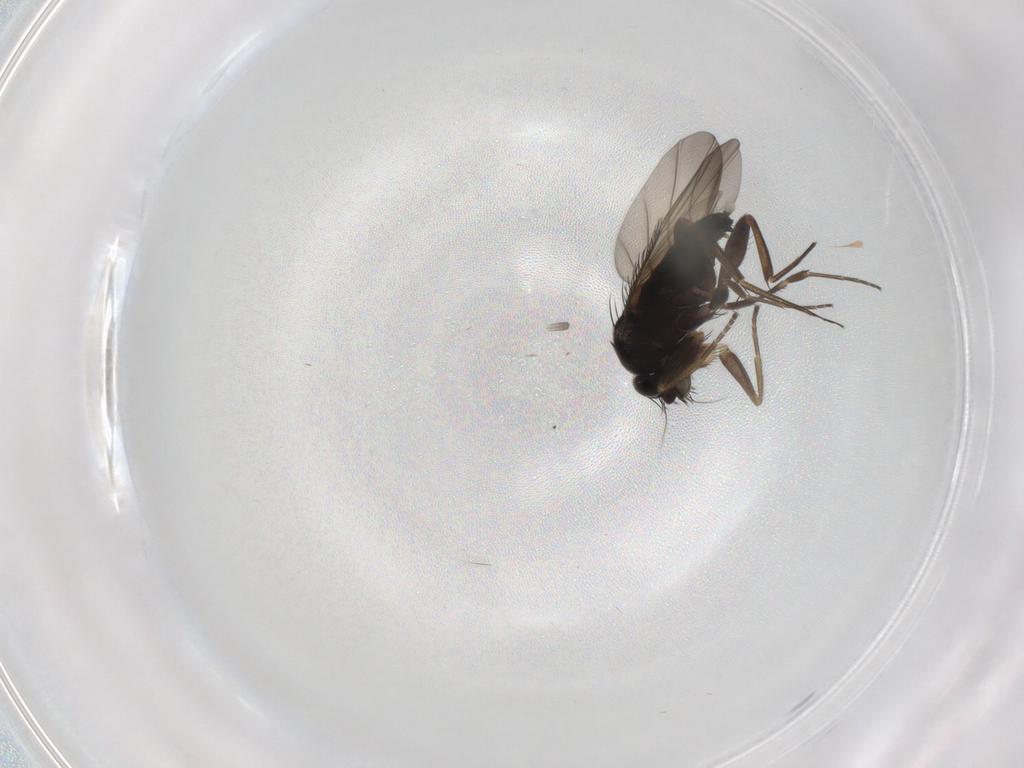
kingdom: Animalia
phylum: Arthropoda
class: Insecta
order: Diptera
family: Phoridae
